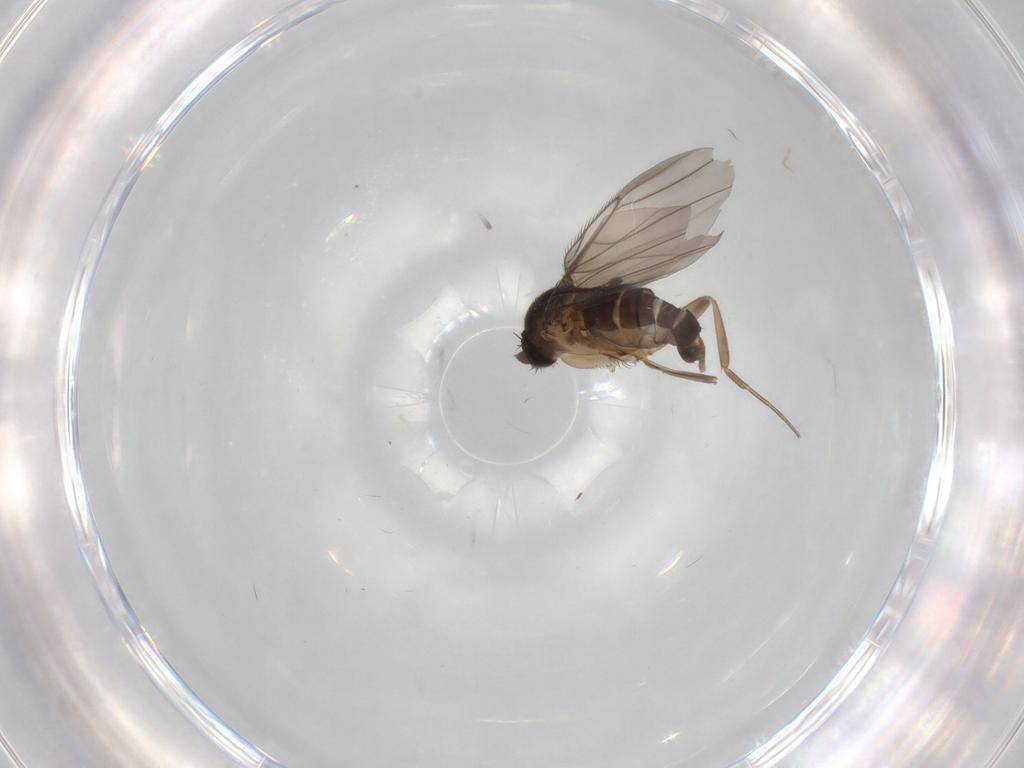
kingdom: Animalia
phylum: Arthropoda
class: Insecta
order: Diptera
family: Phoridae
